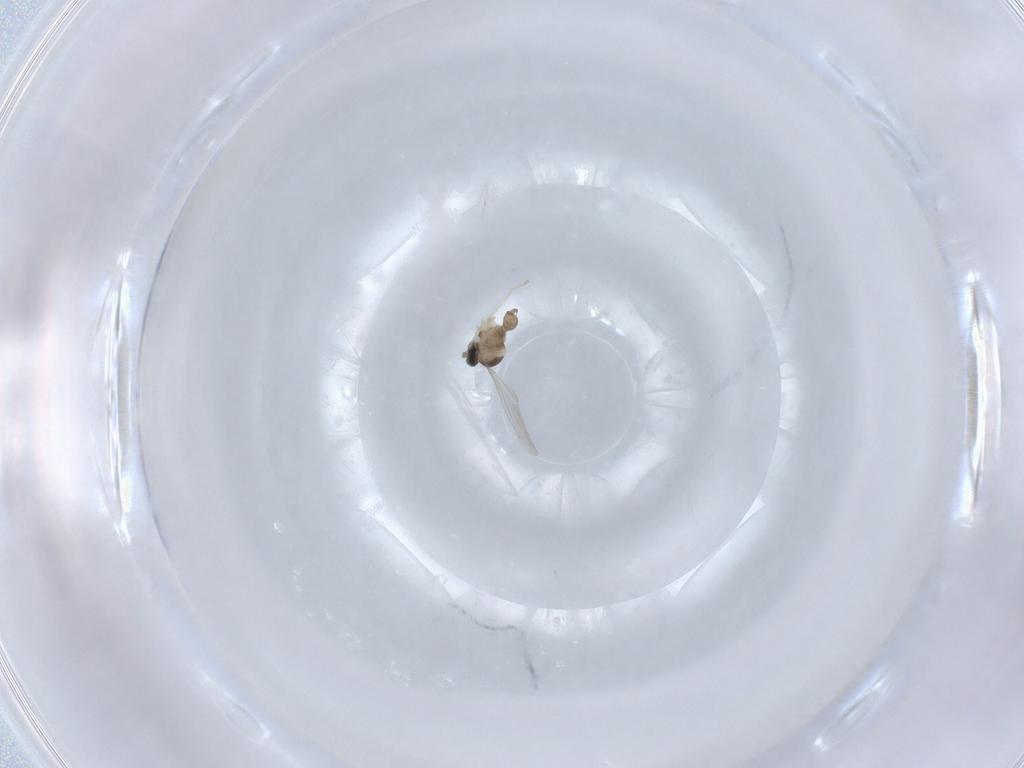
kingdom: Animalia
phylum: Arthropoda
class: Insecta
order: Diptera
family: Cecidomyiidae
